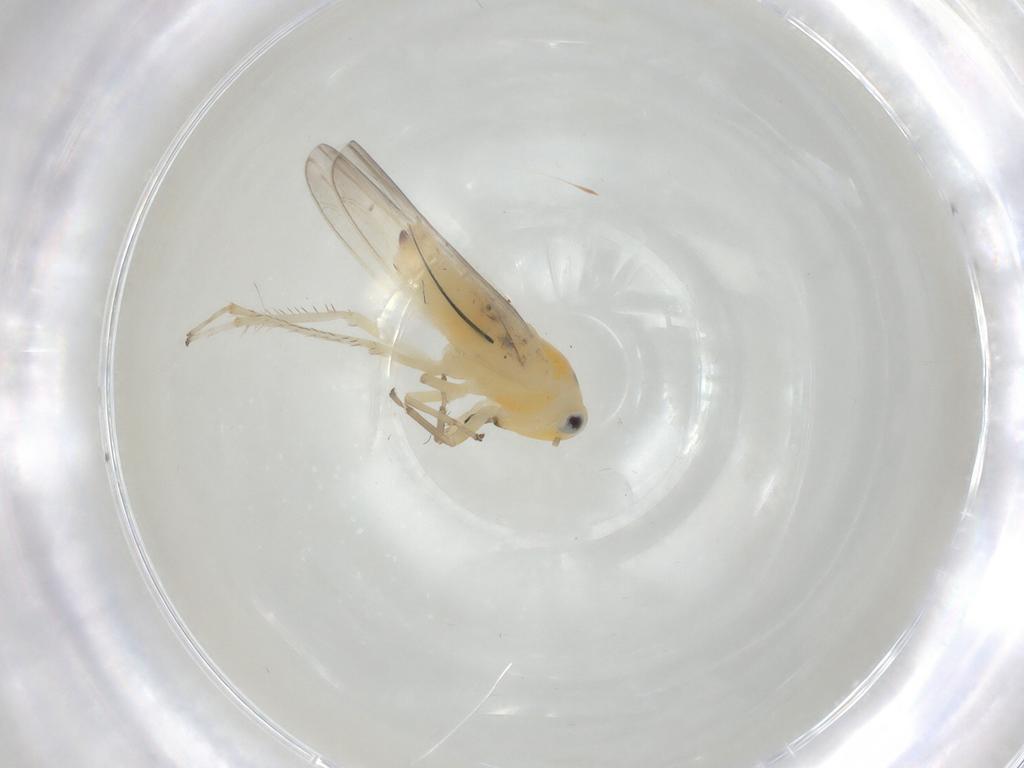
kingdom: Animalia
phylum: Arthropoda
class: Insecta
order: Hemiptera
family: Cicadellidae
